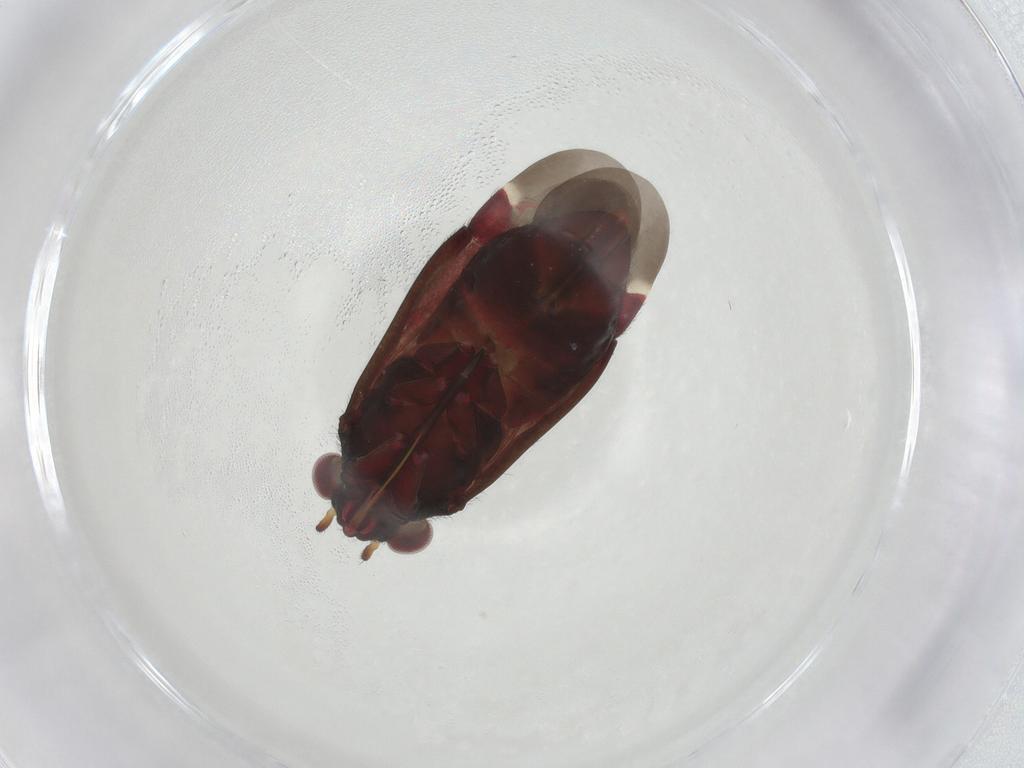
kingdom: Animalia
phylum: Arthropoda
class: Insecta
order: Hemiptera
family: Miridae
